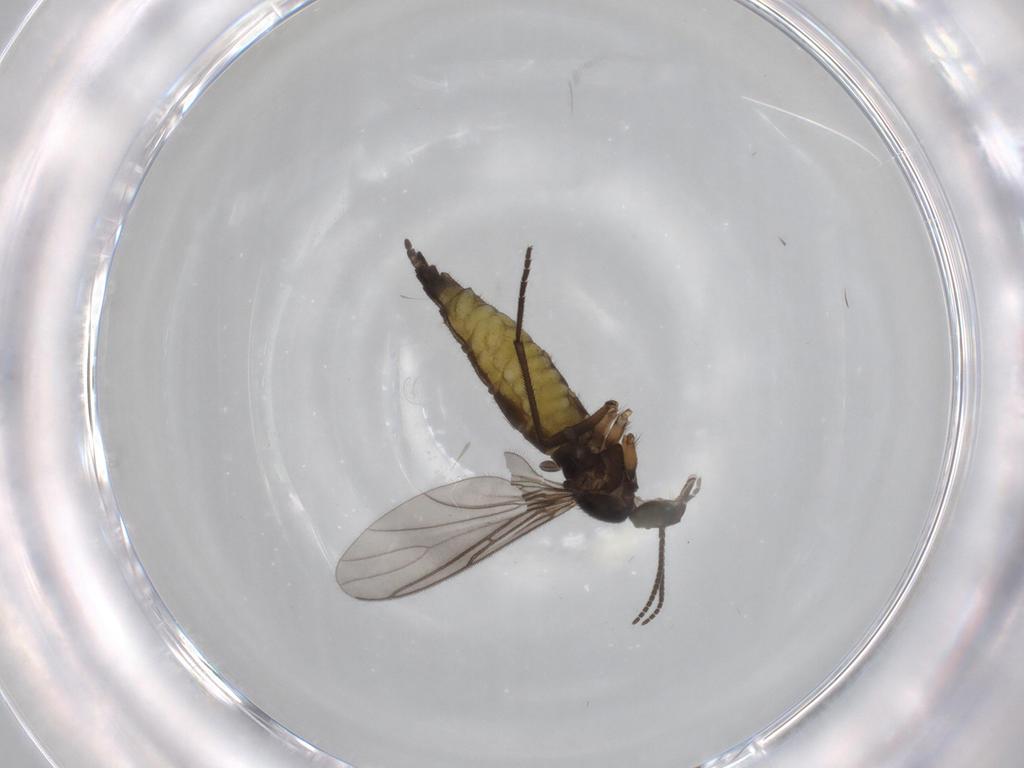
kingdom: Animalia
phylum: Arthropoda
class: Insecta
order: Diptera
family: Sciaridae
